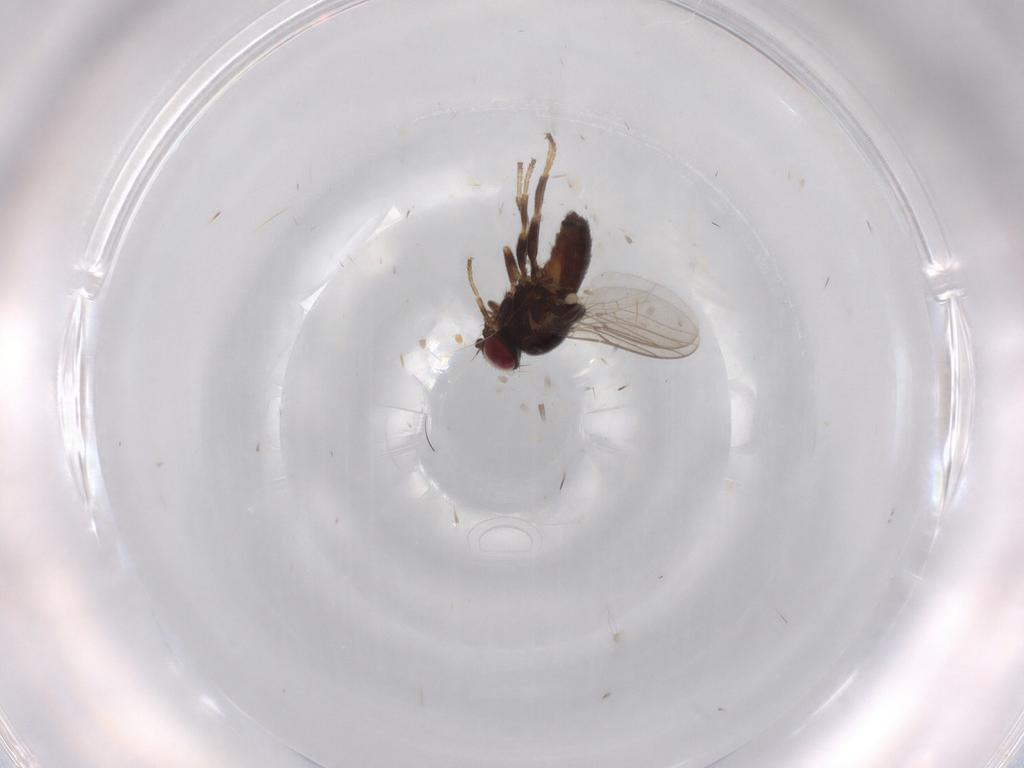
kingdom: Animalia
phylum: Arthropoda
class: Insecta
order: Diptera
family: Chloropidae
